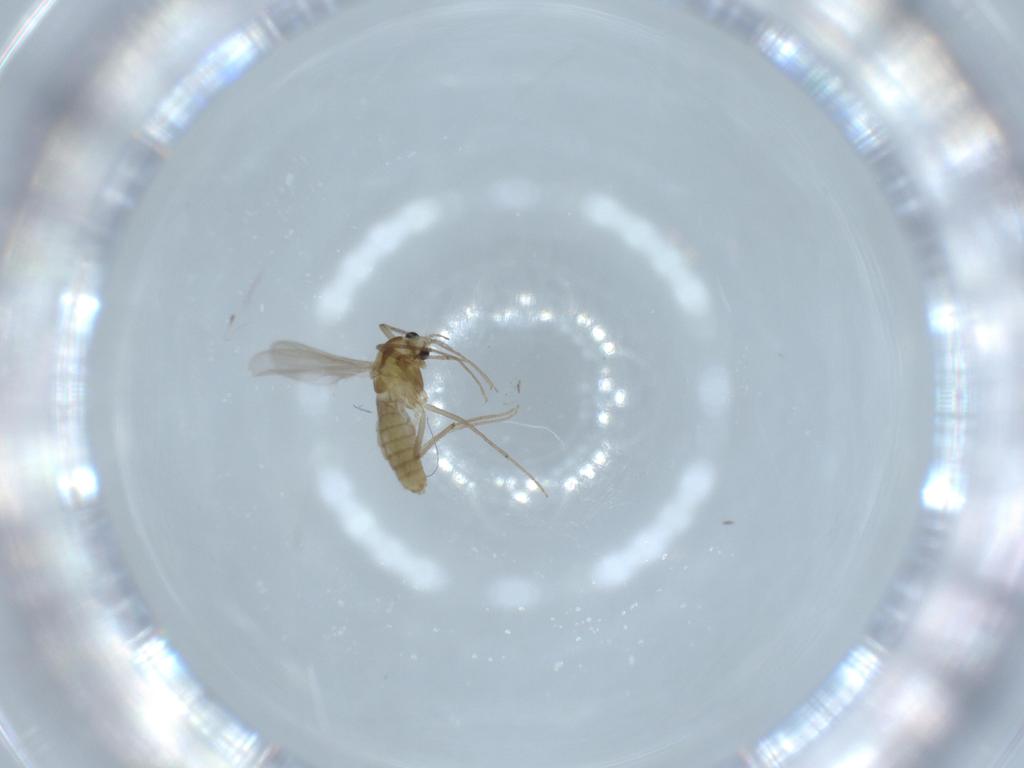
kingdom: Animalia
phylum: Arthropoda
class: Insecta
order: Diptera
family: Chironomidae
